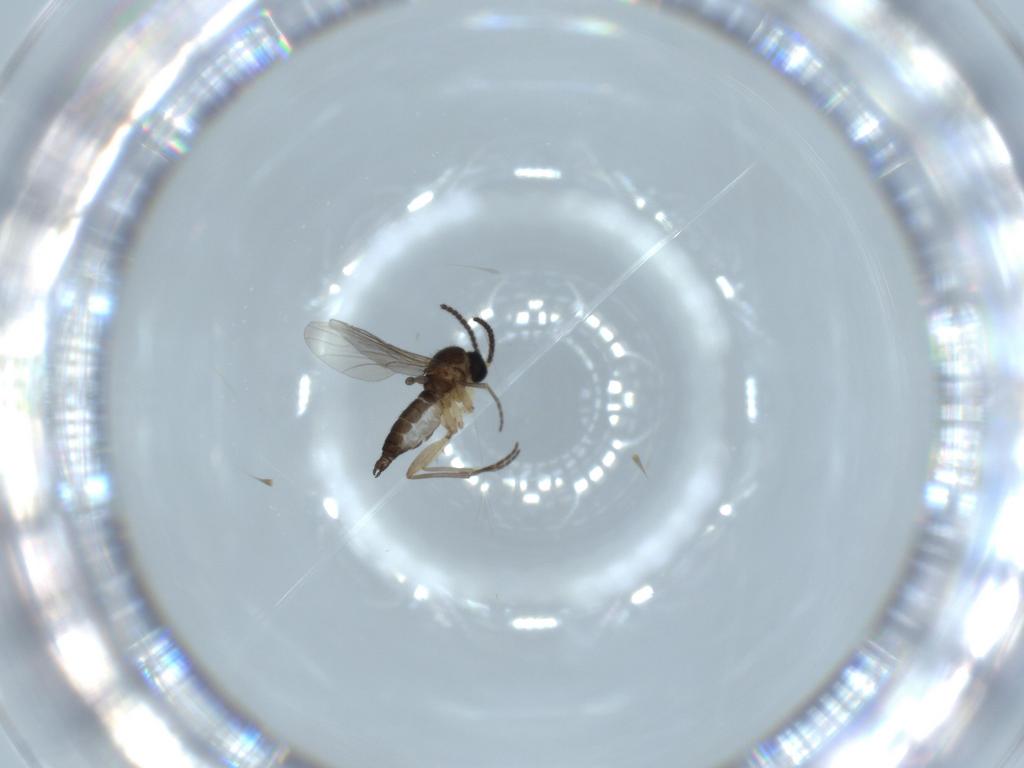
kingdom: Animalia
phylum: Arthropoda
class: Insecta
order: Diptera
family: Sciaridae
